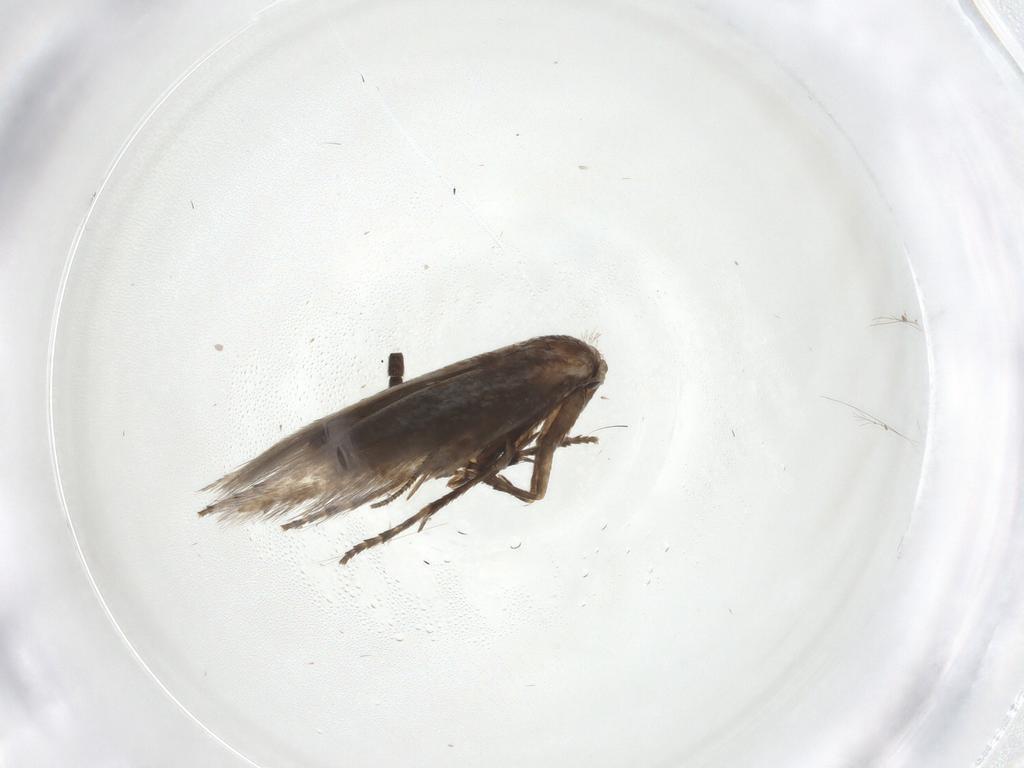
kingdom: Animalia
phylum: Arthropoda
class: Insecta
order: Lepidoptera
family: Bucculatricidae
